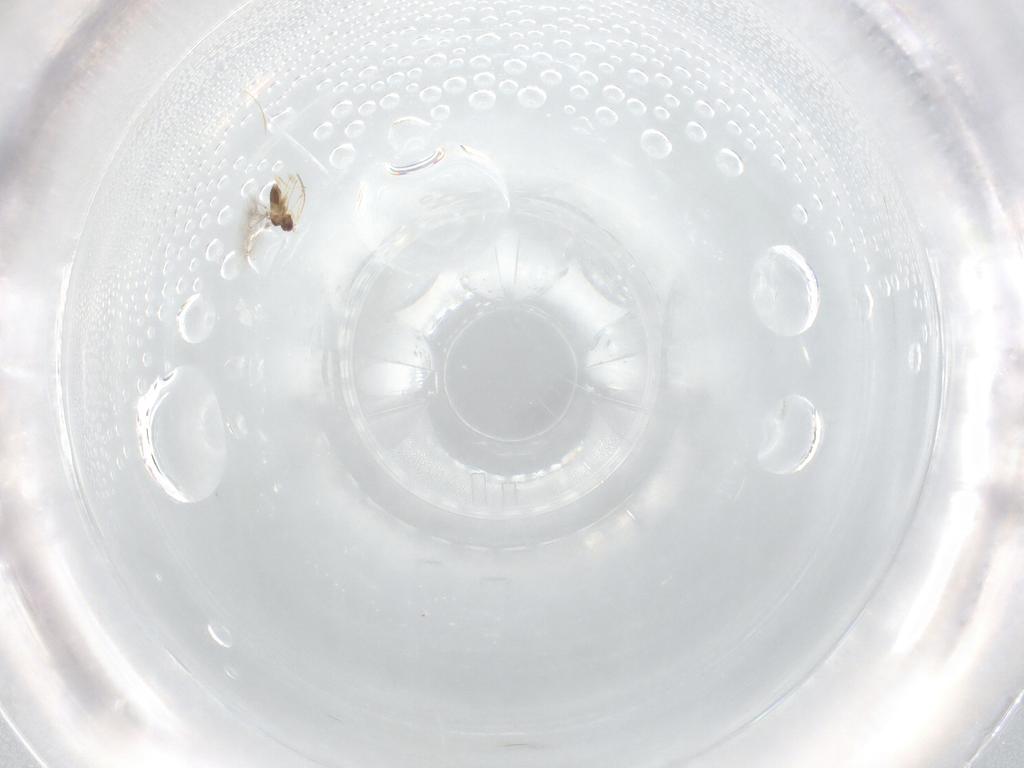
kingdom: Animalia
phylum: Arthropoda
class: Insecta
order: Hymenoptera
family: Mymaridae
